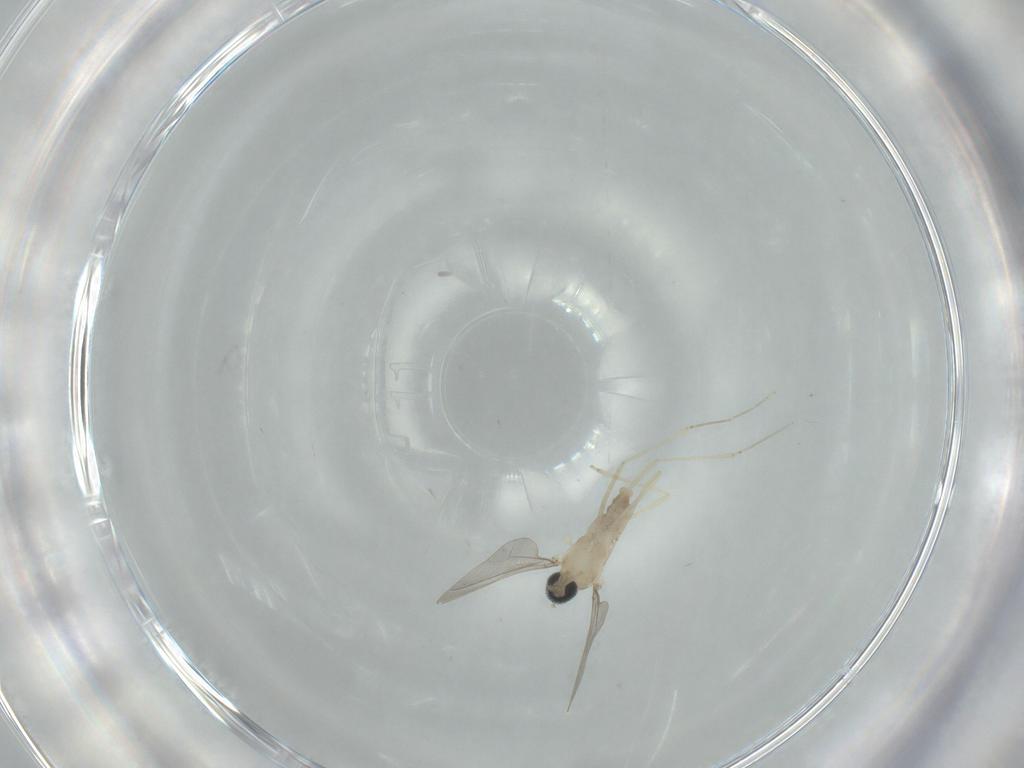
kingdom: Animalia
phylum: Arthropoda
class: Insecta
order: Diptera
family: Cecidomyiidae
